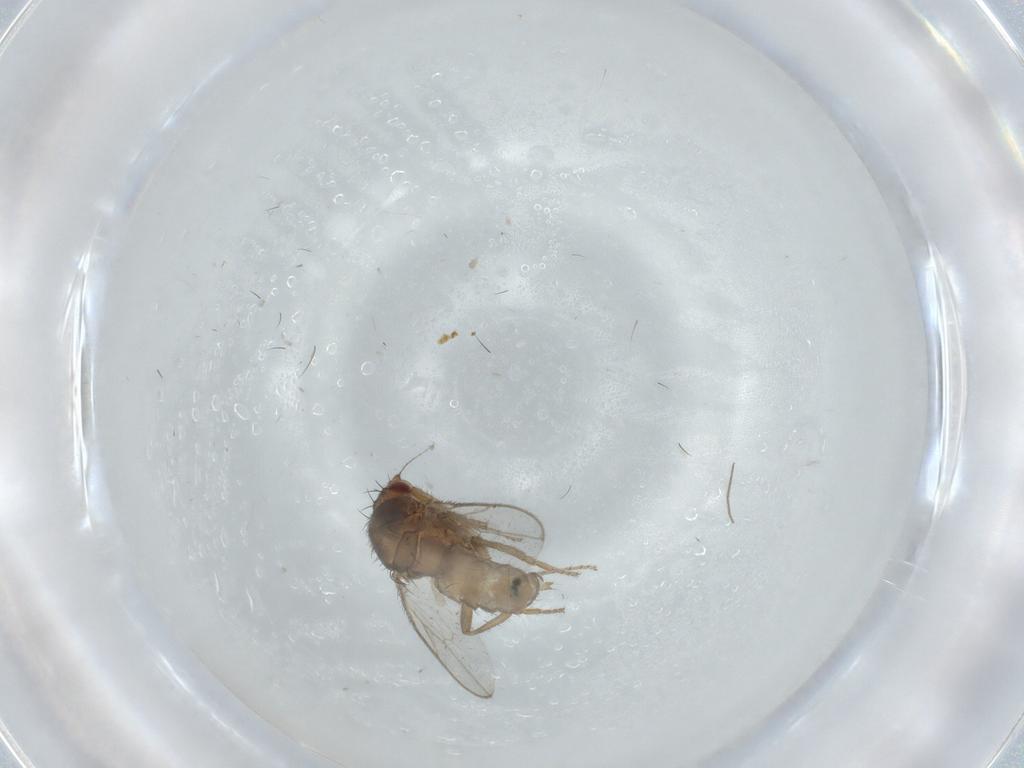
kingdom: Animalia
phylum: Arthropoda
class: Insecta
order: Diptera
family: Sphaeroceridae
